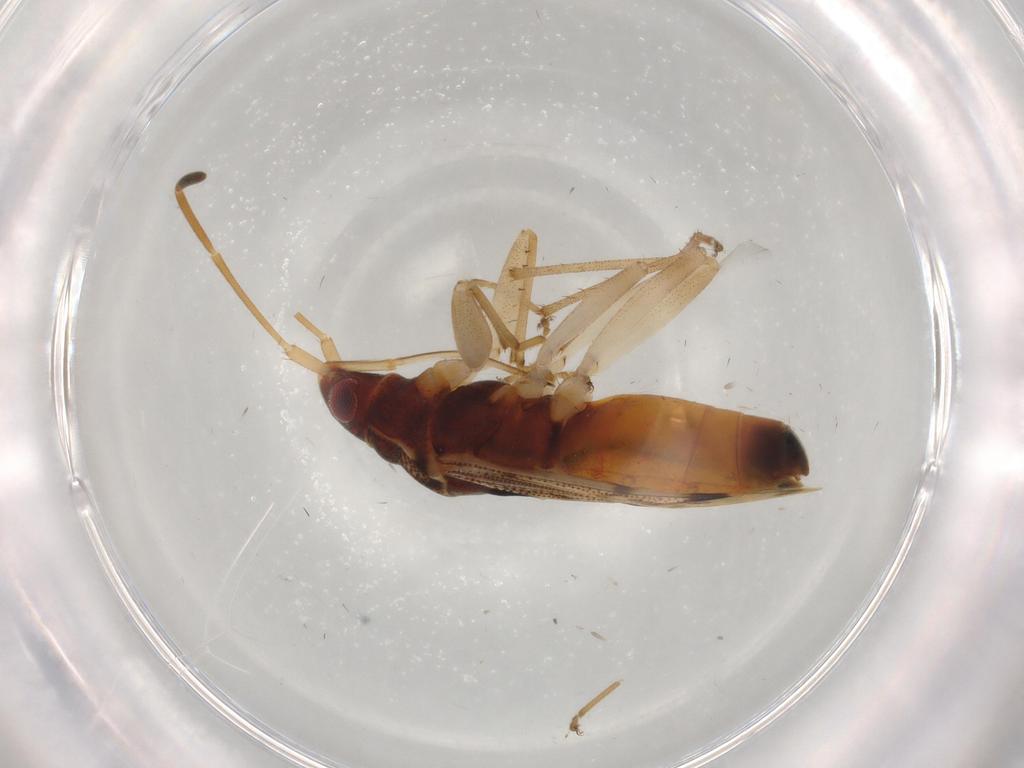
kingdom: Animalia
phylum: Arthropoda
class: Insecta
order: Hemiptera
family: Rhyparochromidae
